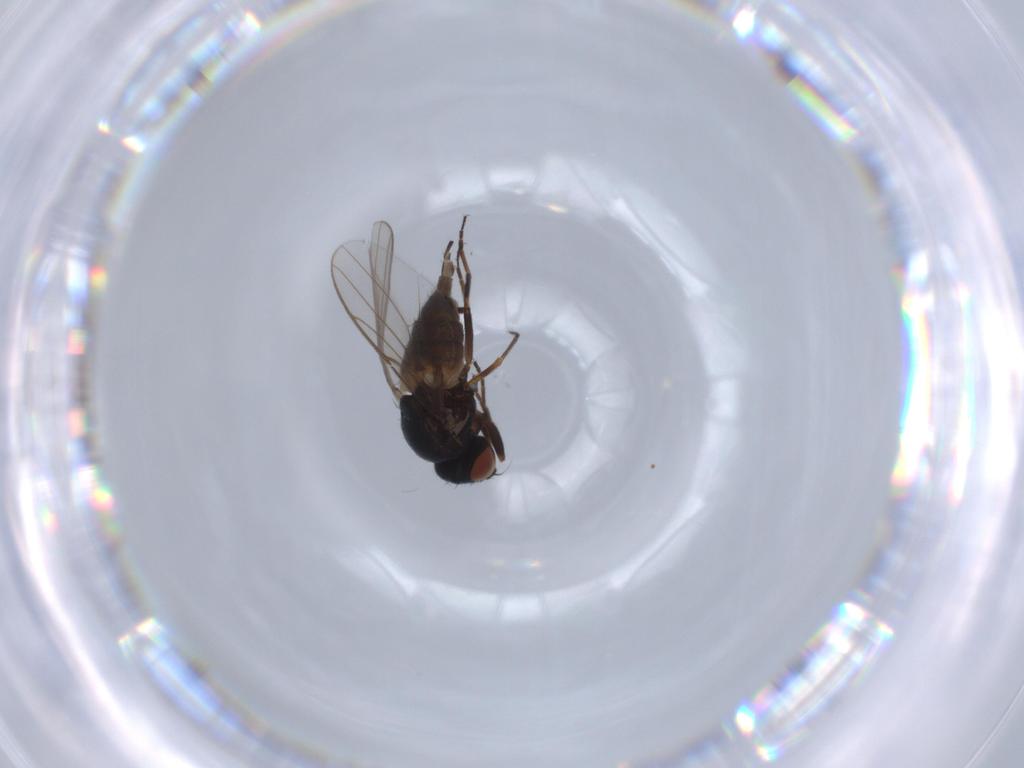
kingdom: Animalia
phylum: Arthropoda
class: Insecta
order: Diptera
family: Chloropidae
